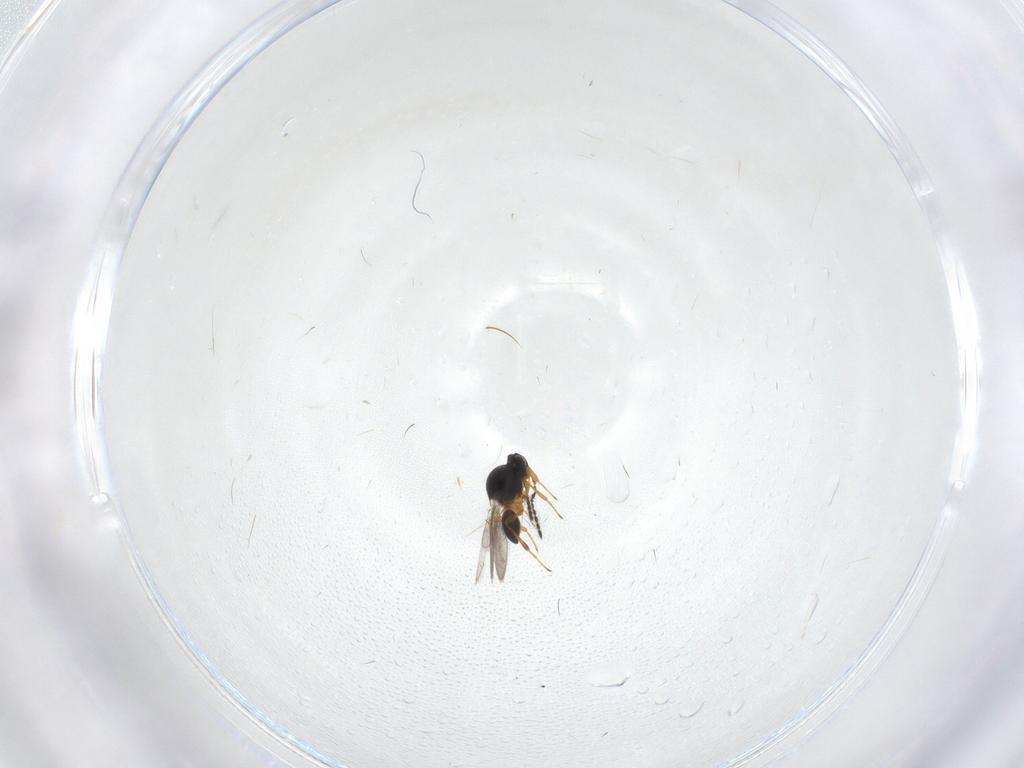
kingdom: Animalia
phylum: Arthropoda
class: Insecta
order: Hymenoptera
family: Platygastridae
